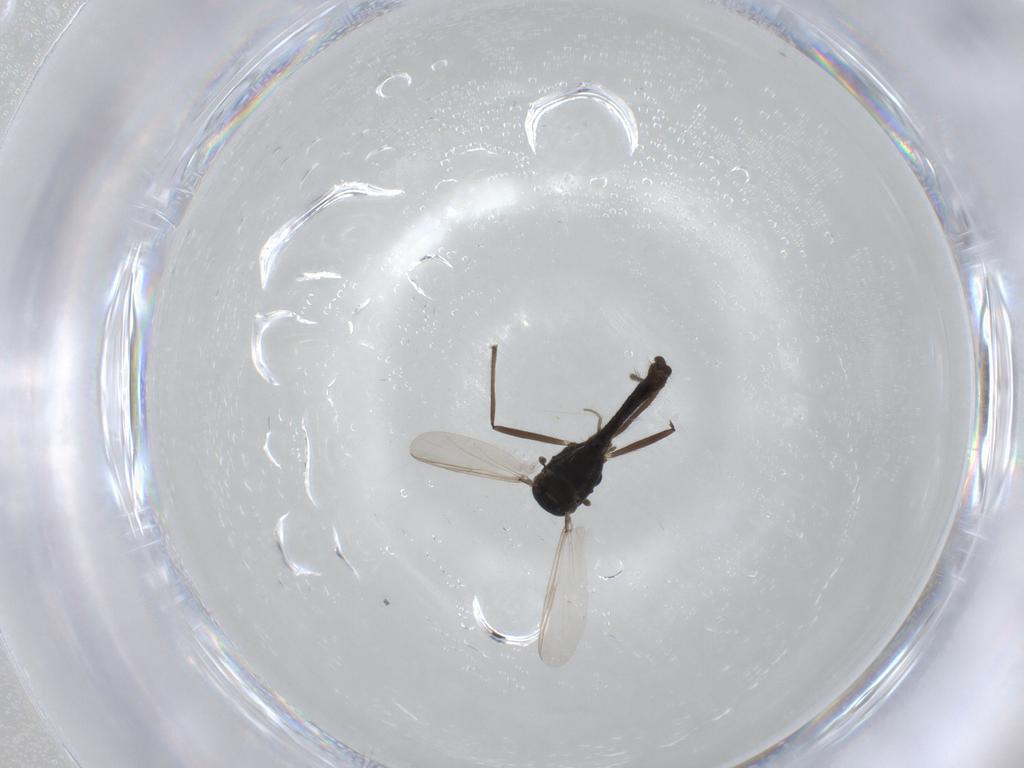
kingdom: Animalia
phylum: Arthropoda
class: Insecta
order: Diptera
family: Chironomidae
